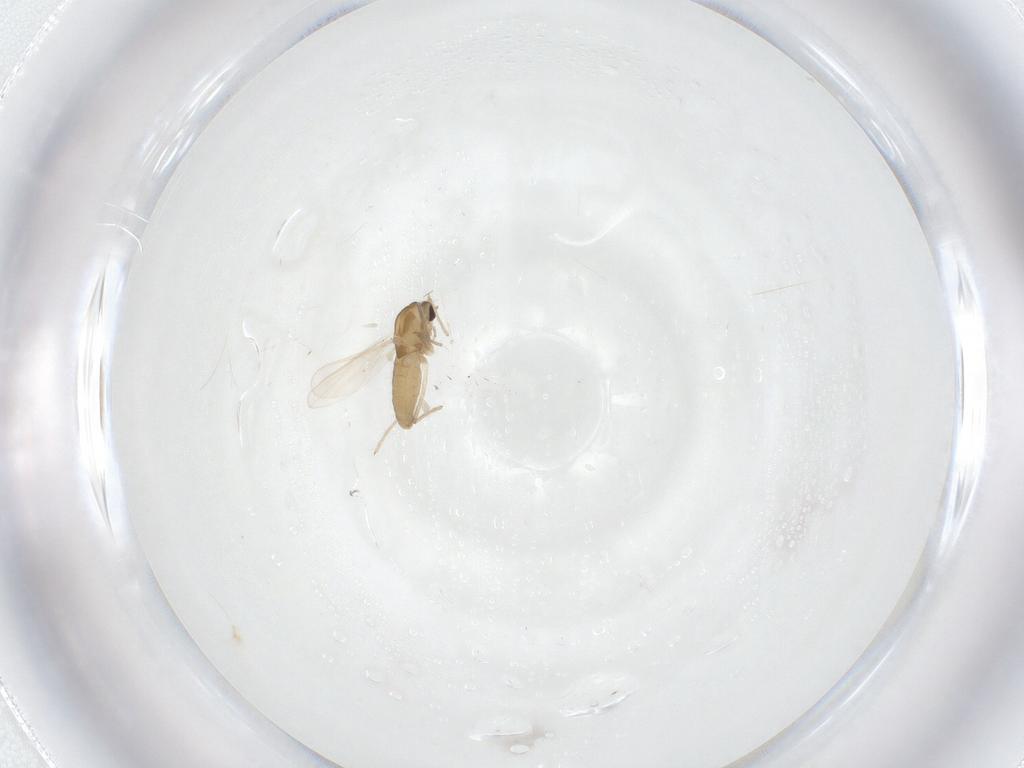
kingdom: Animalia
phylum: Arthropoda
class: Insecta
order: Diptera
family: Chironomidae
